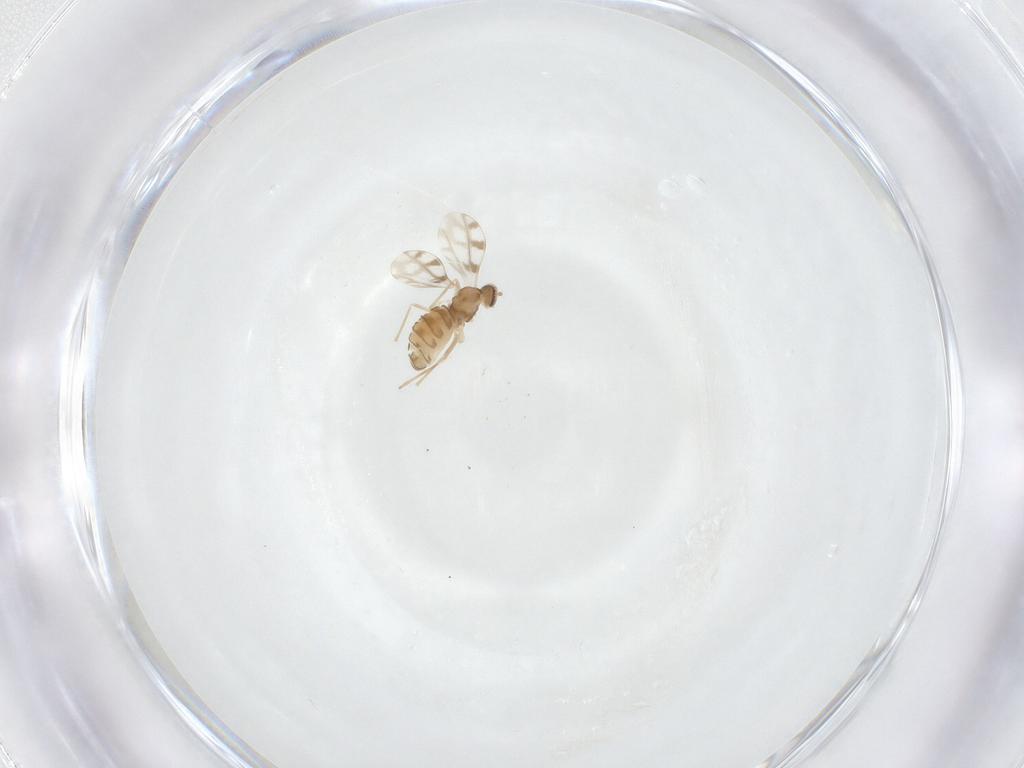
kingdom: Animalia
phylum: Arthropoda
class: Insecta
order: Diptera
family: Cecidomyiidae
